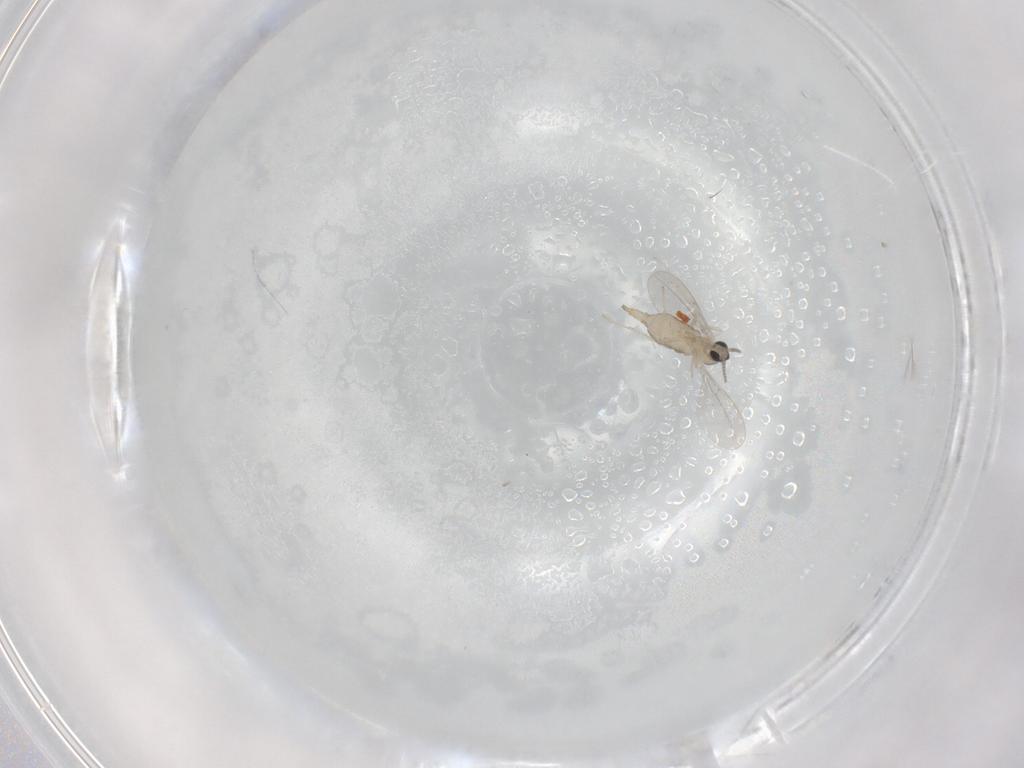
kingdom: Animalia
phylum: Arthropoda
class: Insecta
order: Diptera
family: Cecidomyiidae
